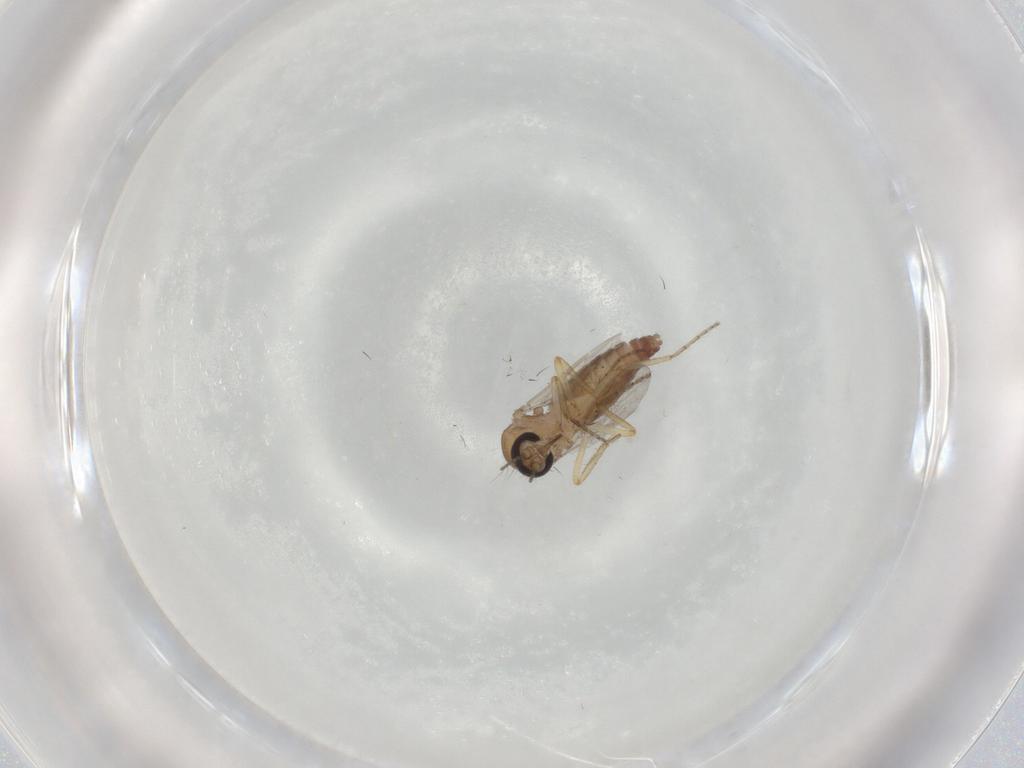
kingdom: Animalia
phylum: Arthropoda
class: Insecta
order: Diptera
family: Ceratopogonidae
